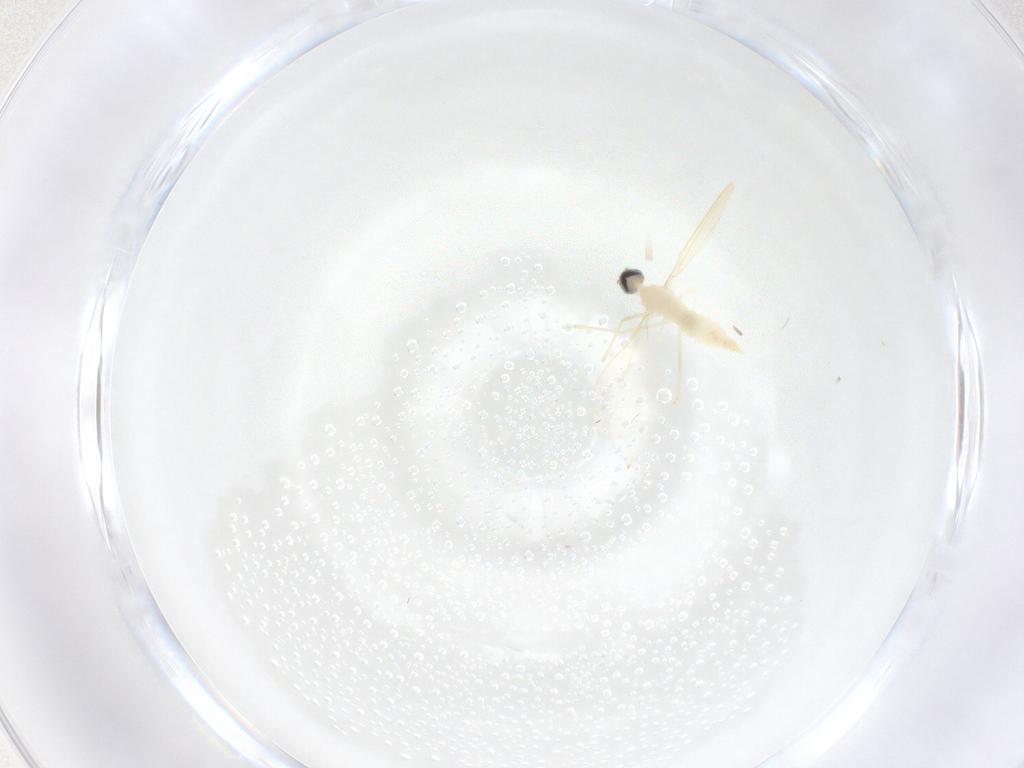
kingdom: Animalia
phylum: Arthropoda
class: Insecta
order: Diptera
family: Cecidomyiidae
